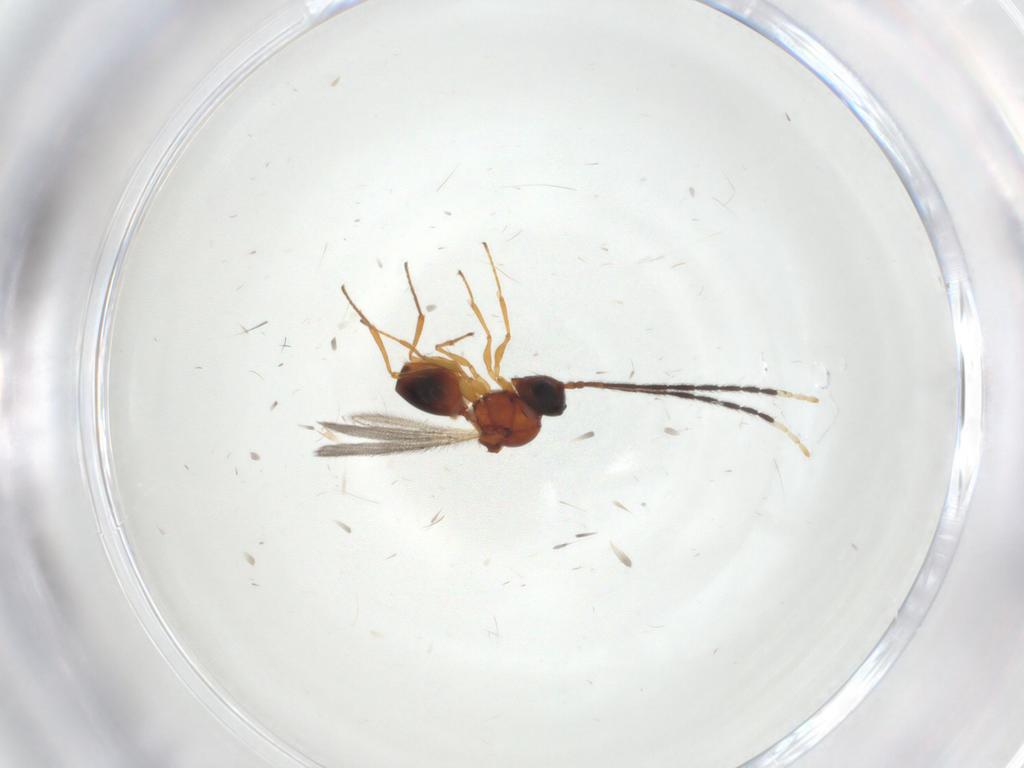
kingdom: Animalia
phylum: Arthropoda
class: Insecta
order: Hymenoptera
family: Figitidae
